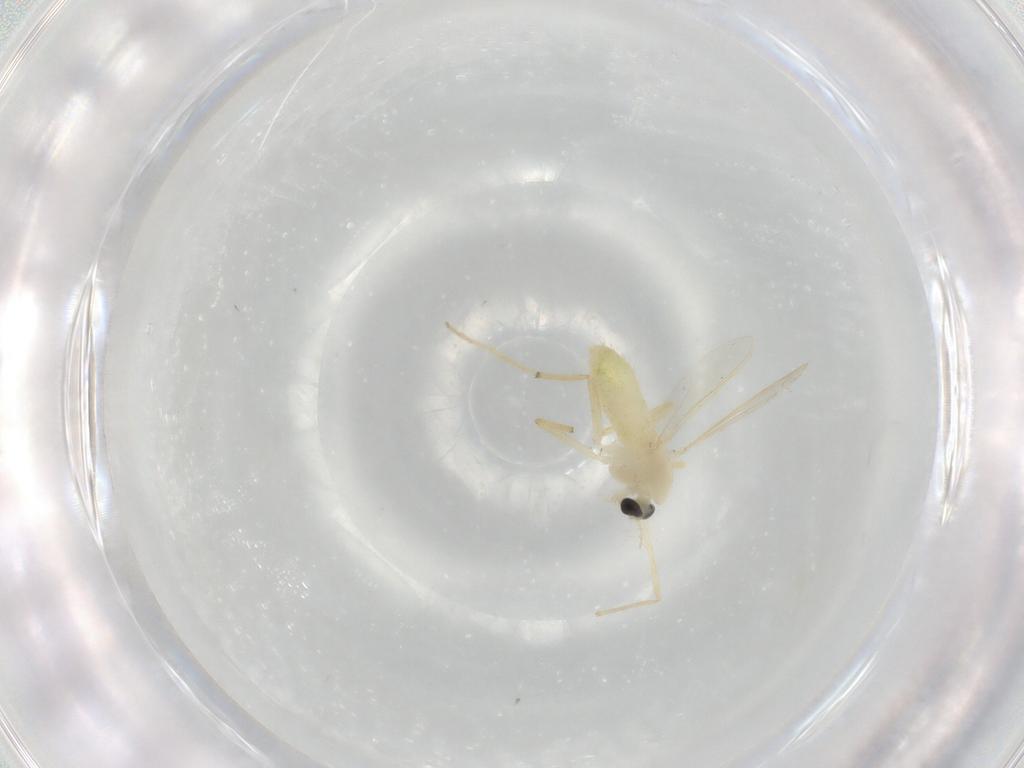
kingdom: Animalia
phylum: Arthropoda
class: Insecta
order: Diptera
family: Chironomidae
